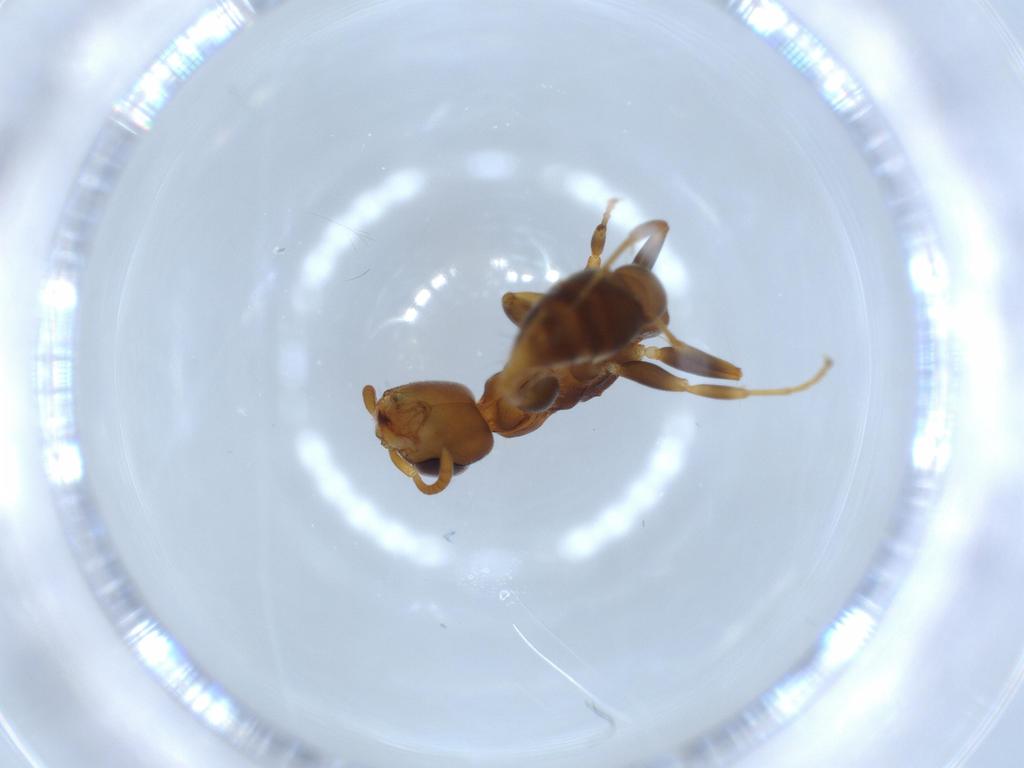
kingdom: Animalia
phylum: Arthropoda
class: Insecta
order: Hymenoptera
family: Formicidae
